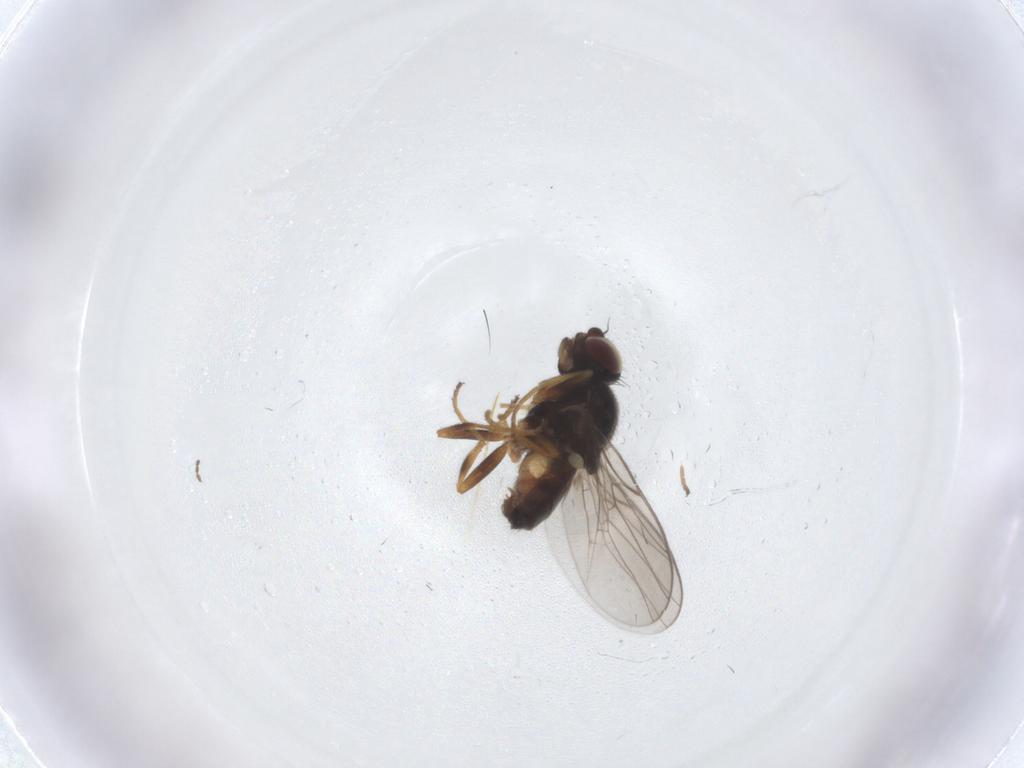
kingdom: Animalia
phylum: Arthropoda
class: Insecta
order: Diptera
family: Chloropidae
